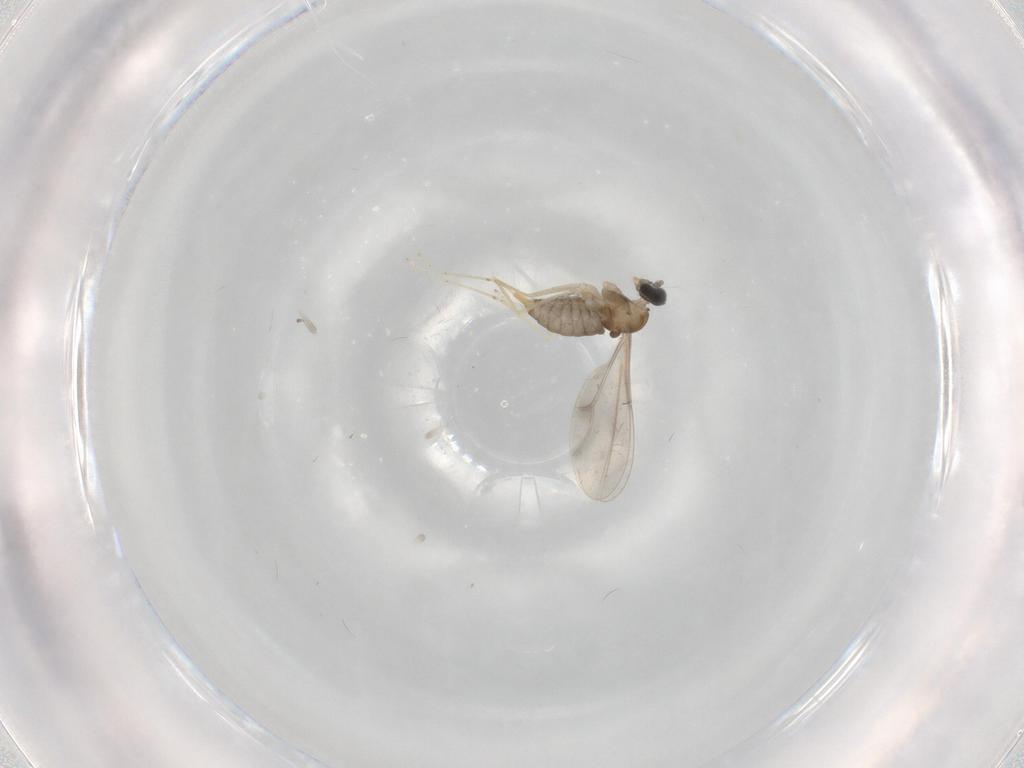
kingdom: Animalia
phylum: Arthropoda
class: Insecta
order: Diptera
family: Cecidomyiidae
